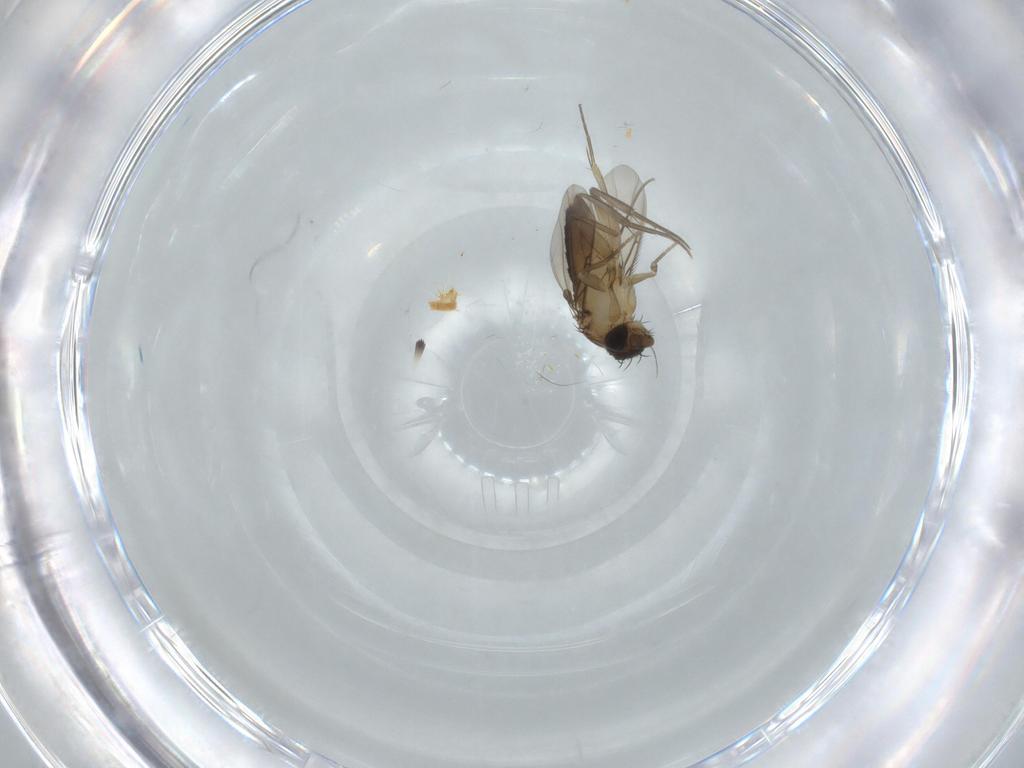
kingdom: Animalia
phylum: Arthropoda
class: Insecta
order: Diptera
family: Phoridae
